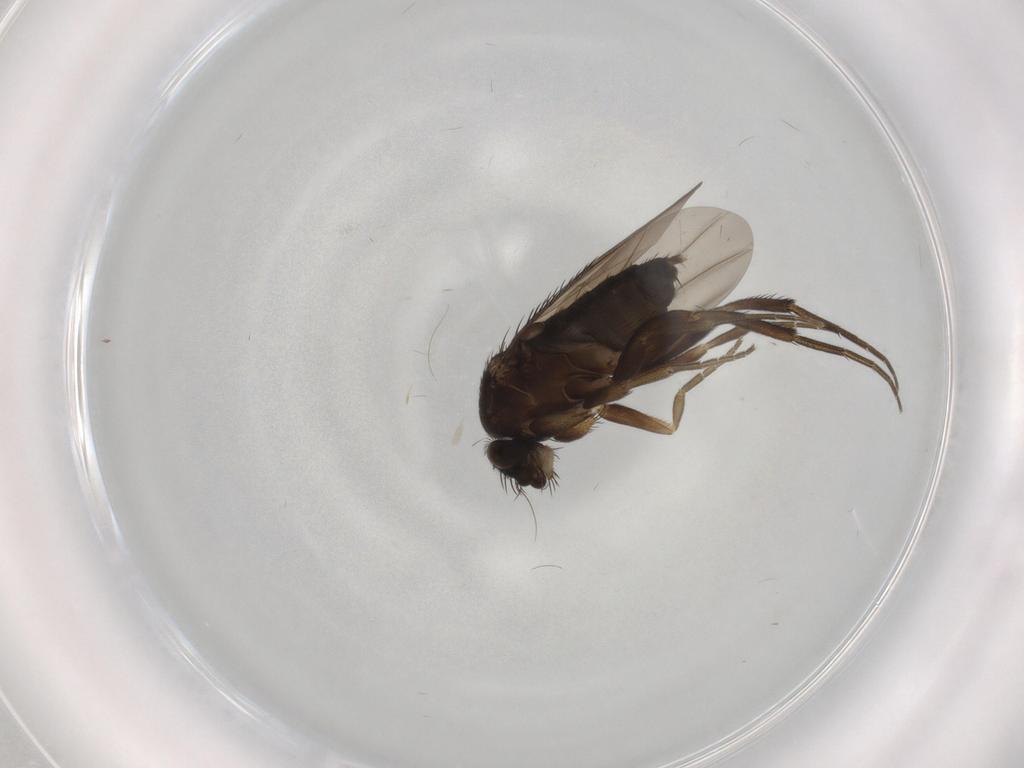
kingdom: Animalia
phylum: Arthropoda
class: Insecta
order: Diptera
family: Phoridae
